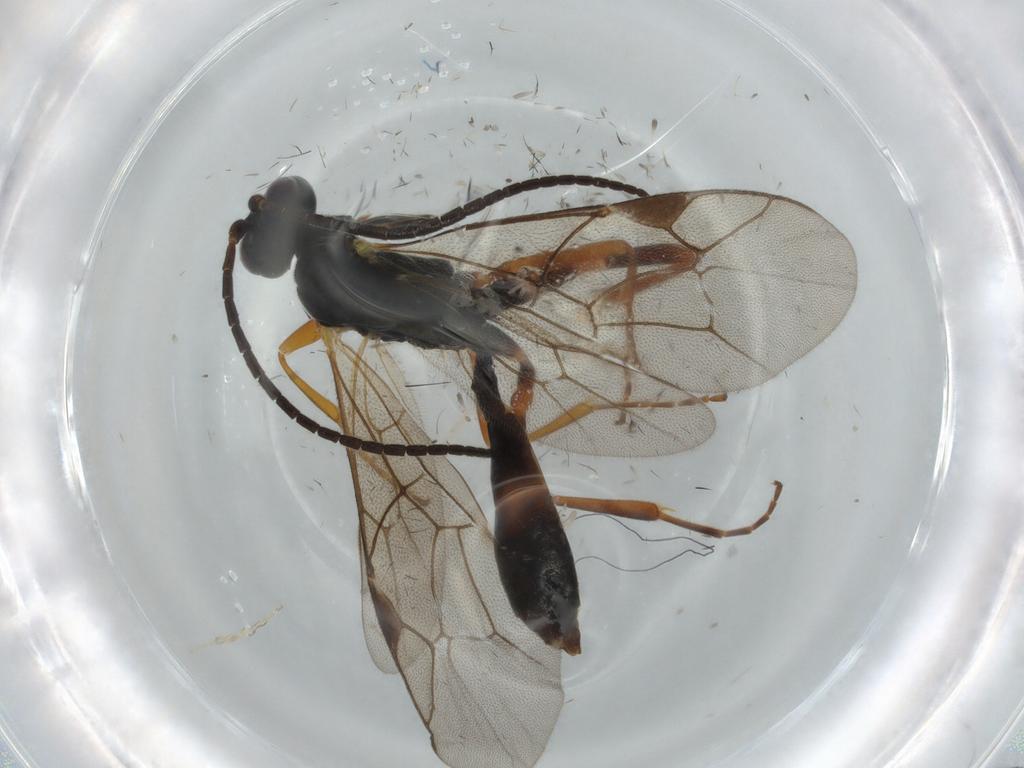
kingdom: Animalia
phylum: Arthropoda
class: Insecta
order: Hymenoptera
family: Ichneumonidae
